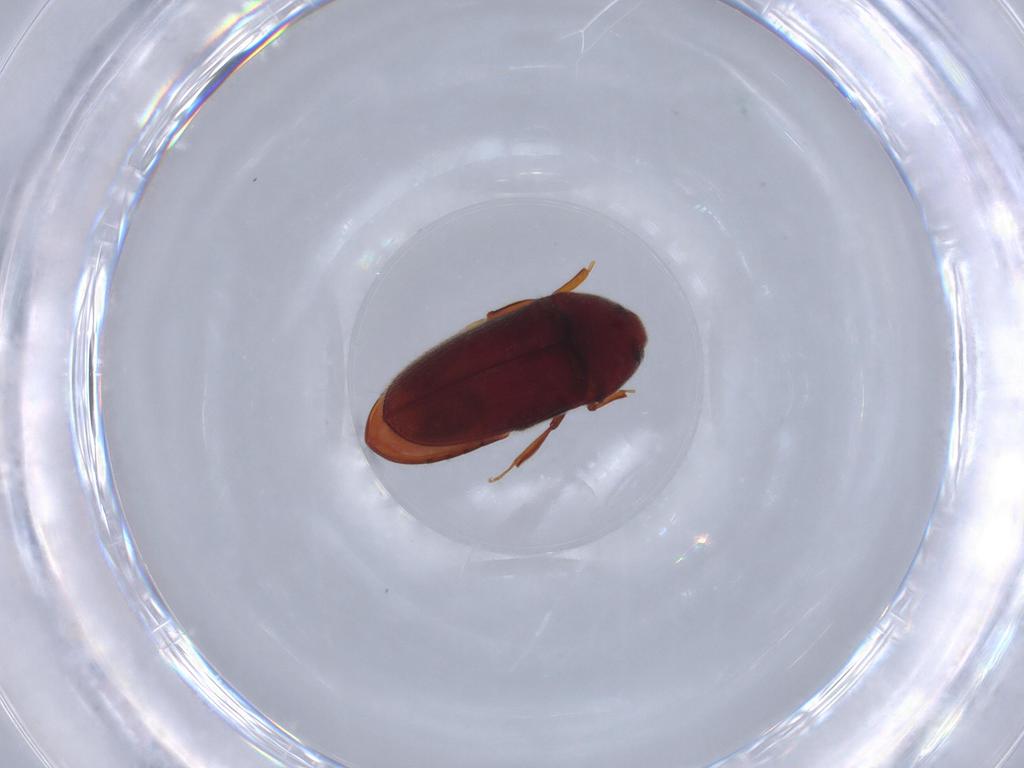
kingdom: Animalia
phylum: Arthropoda
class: Insecta
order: Coleoptera
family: Throscidae
